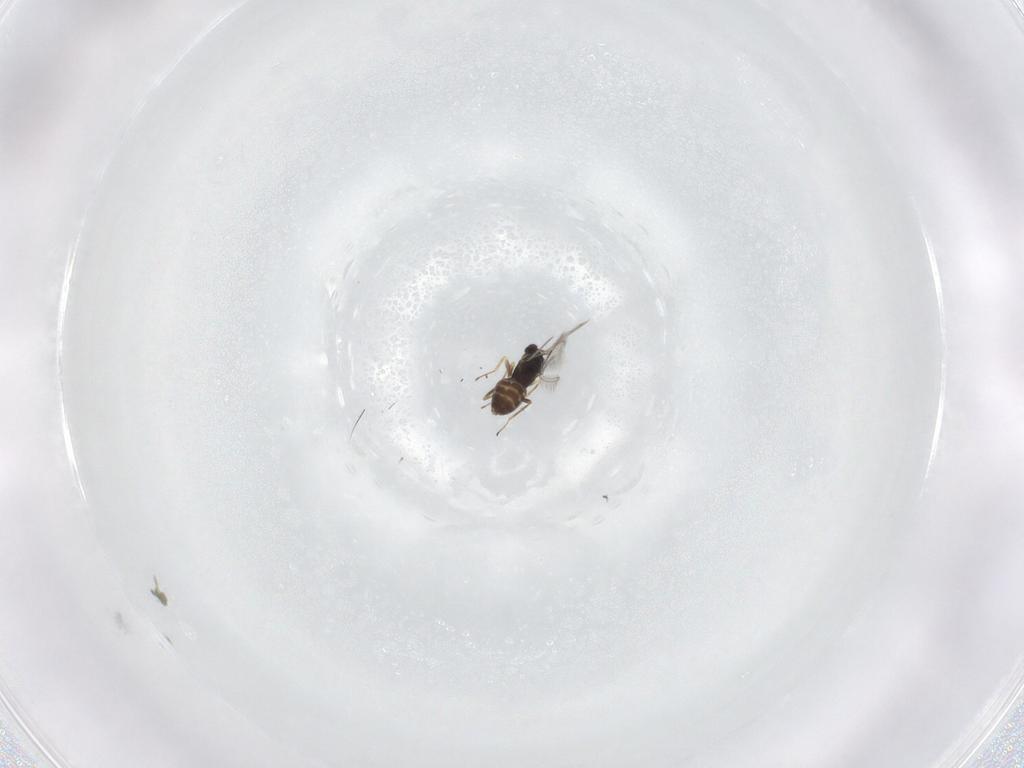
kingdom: Animalia
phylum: Arthropoda
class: Insecta
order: Hymenoptera
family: Mymaridae
